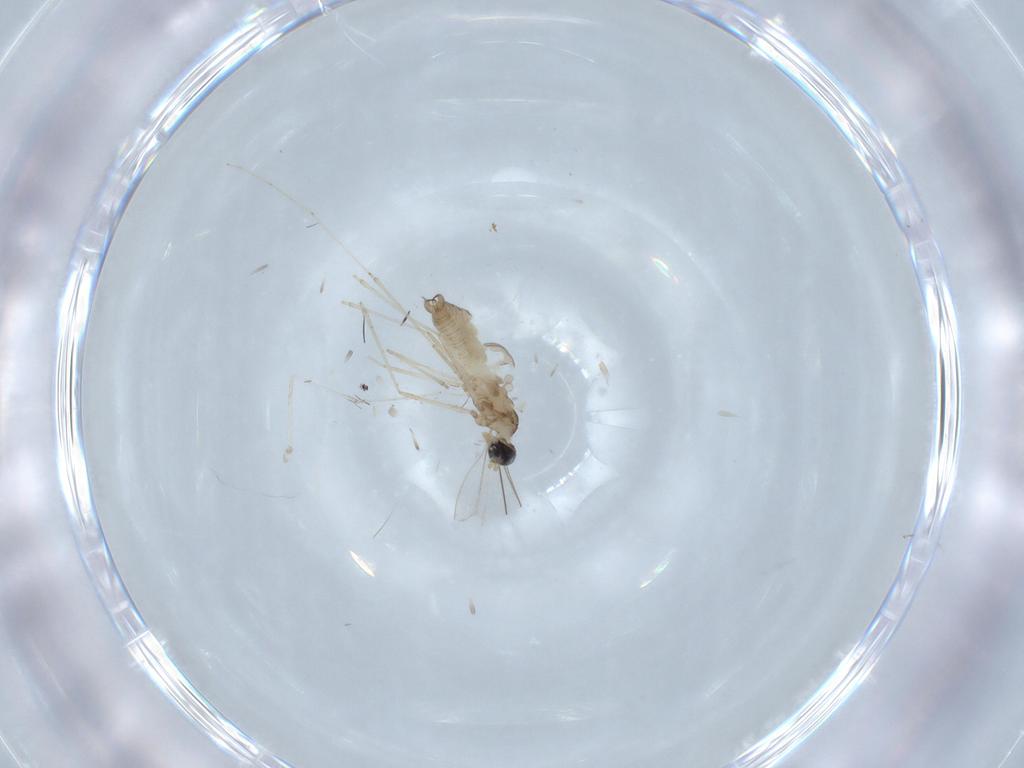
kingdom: Animalia
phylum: Arthropoda
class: Insecta
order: Diptera
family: Cecidomyiidae
